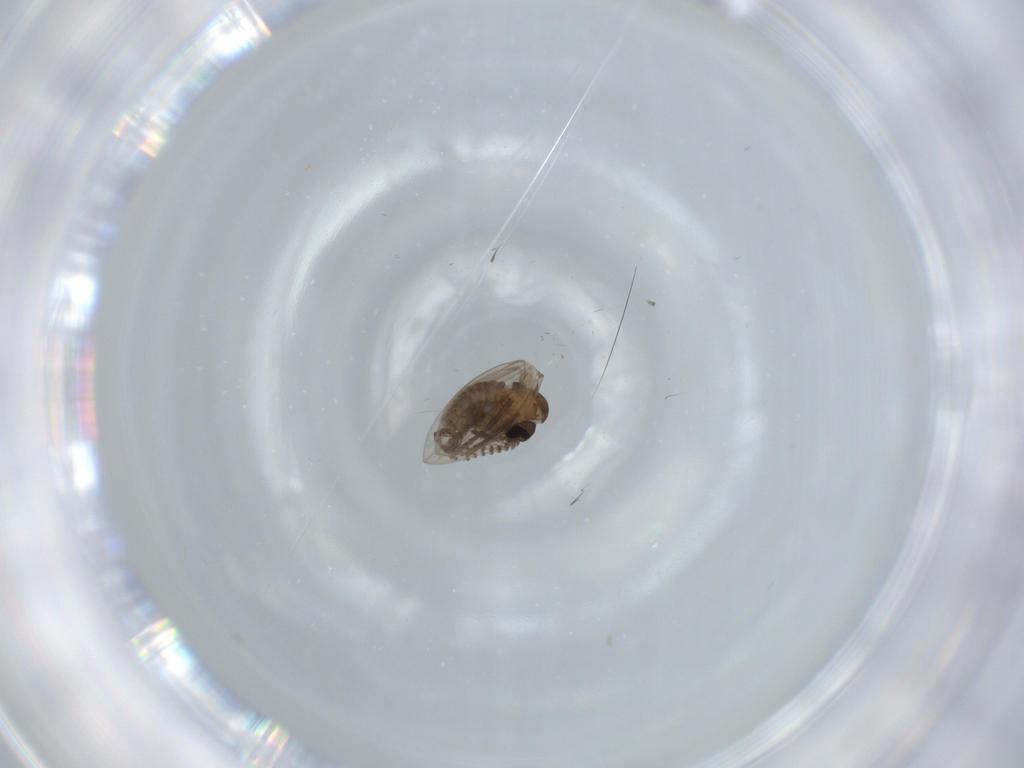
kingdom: Animalia
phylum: Arthropoda
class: Insecta
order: Diptera
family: Psychodidae
